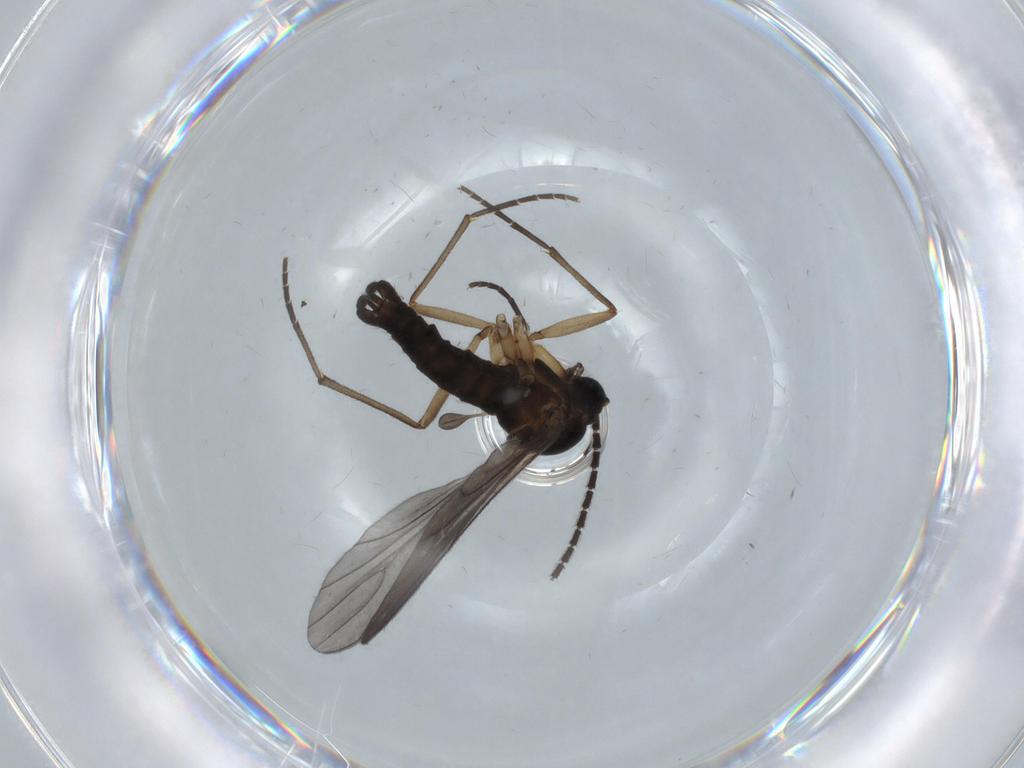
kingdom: Animalia
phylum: Arthropoda
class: Insecta
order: Diptera
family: Sciaridae
